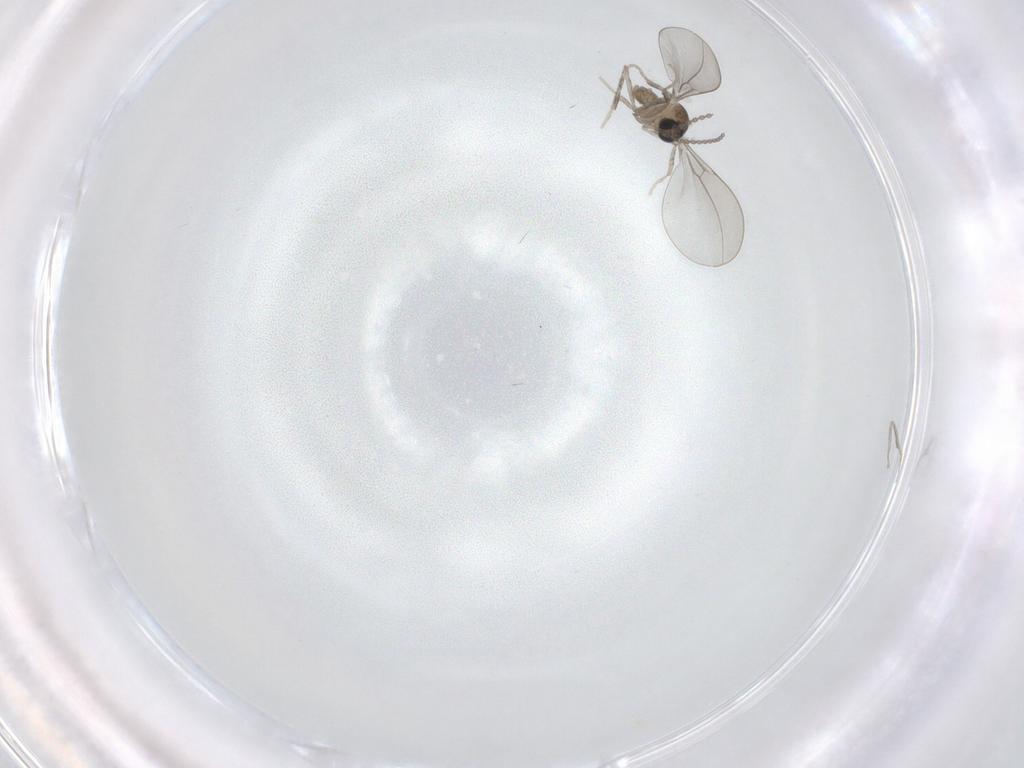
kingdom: Animalia
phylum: Arthropoda
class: Insecta
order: Diptera
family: Cecidomyiidae
